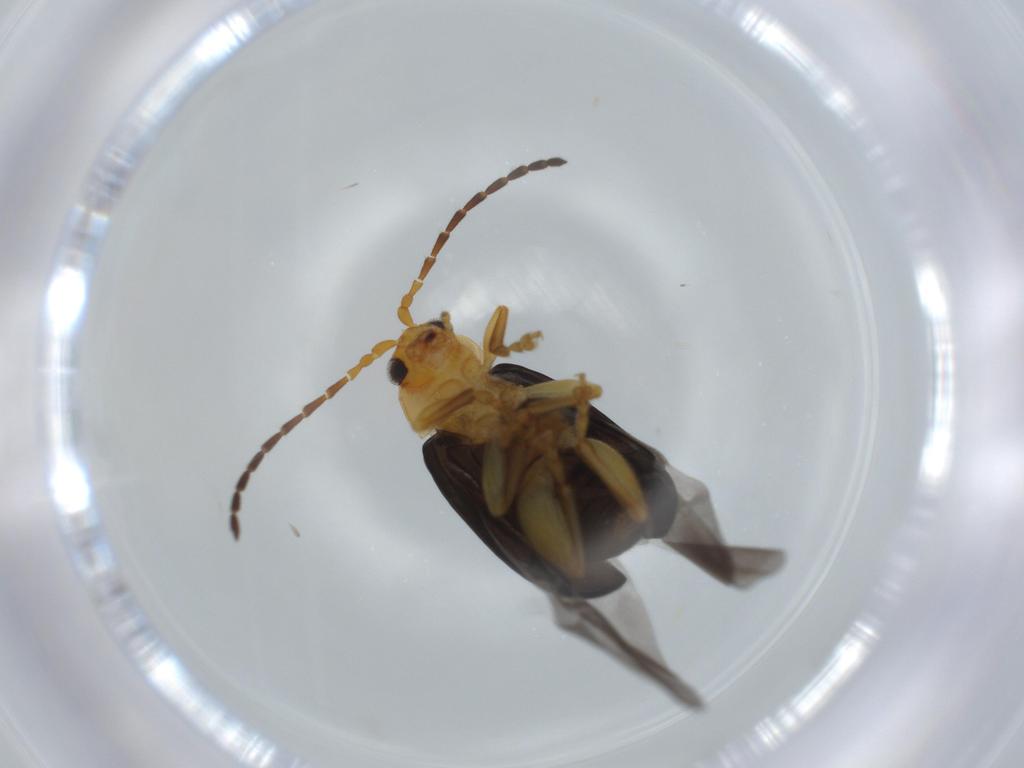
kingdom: Animalia
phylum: Arthropoda
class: Insecta
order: Coleoptera
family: Chrysomelidae
